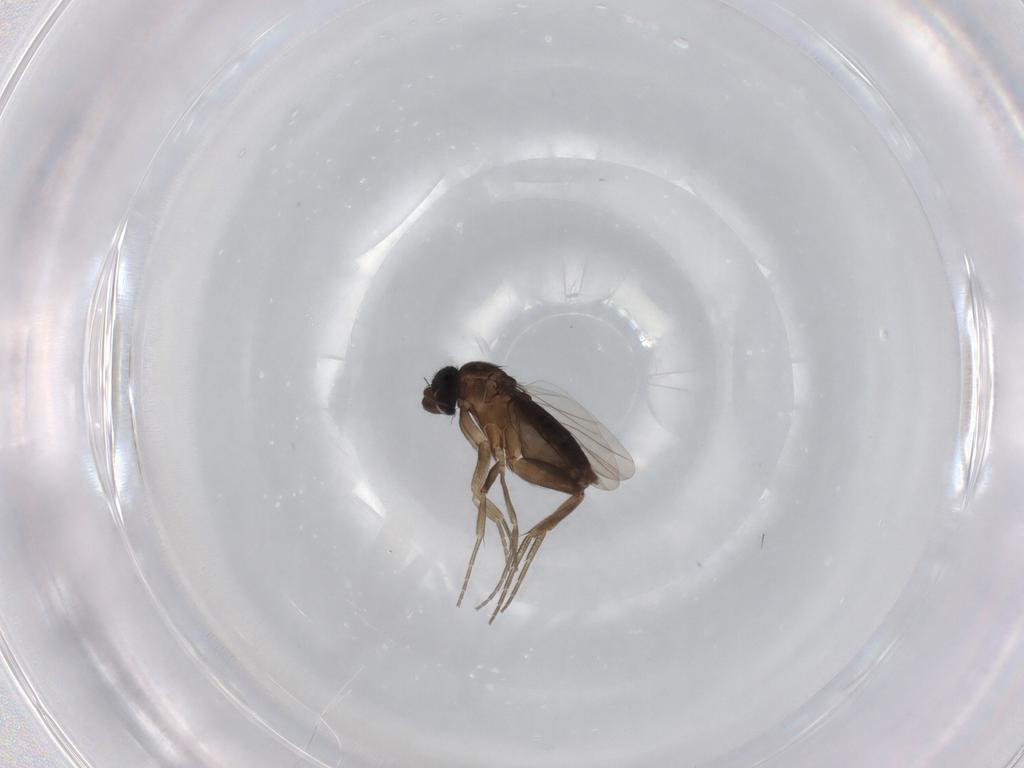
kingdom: Animalia
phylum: Arthropoda
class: Insecta
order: Diptera
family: Phoridae
